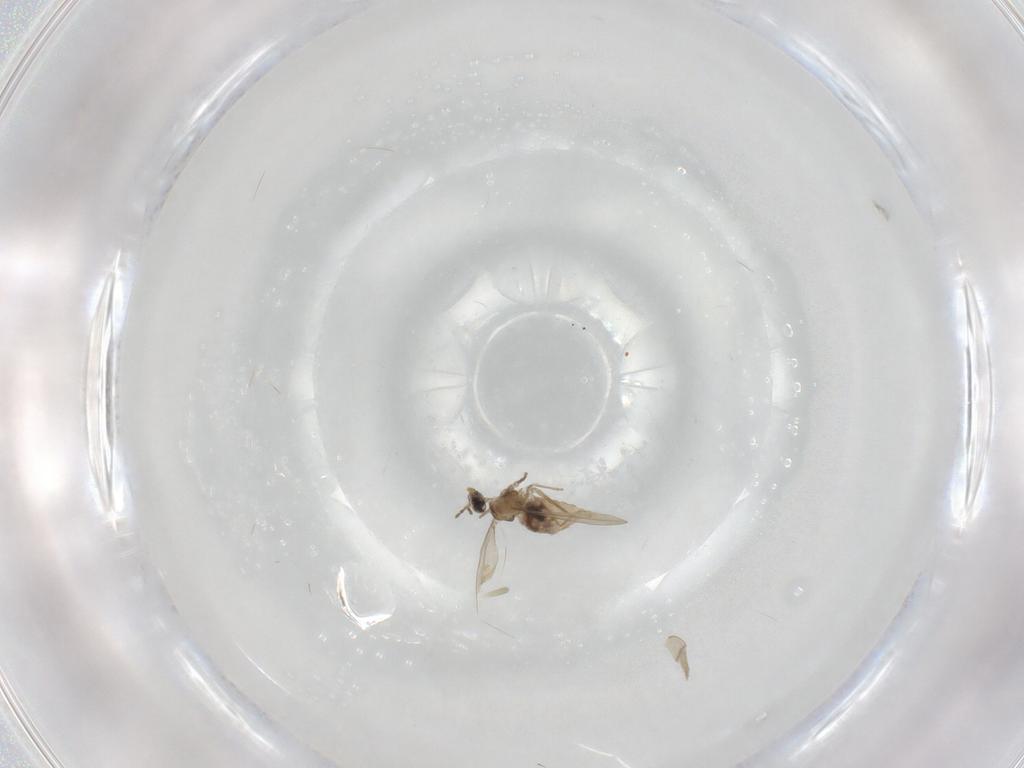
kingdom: Animalia
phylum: Arthropoda
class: Insecta
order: Diptera
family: Cecidomyiidae
